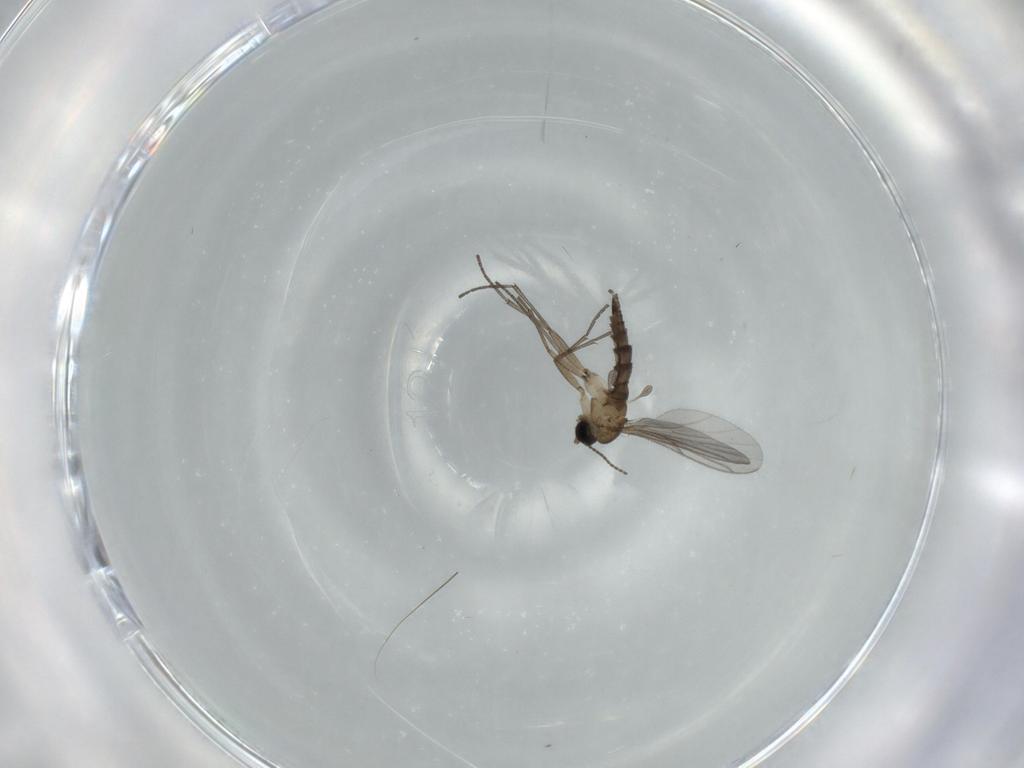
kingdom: Animalia
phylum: Arthropoda
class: Insecta
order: Diptera
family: Sciaridae
